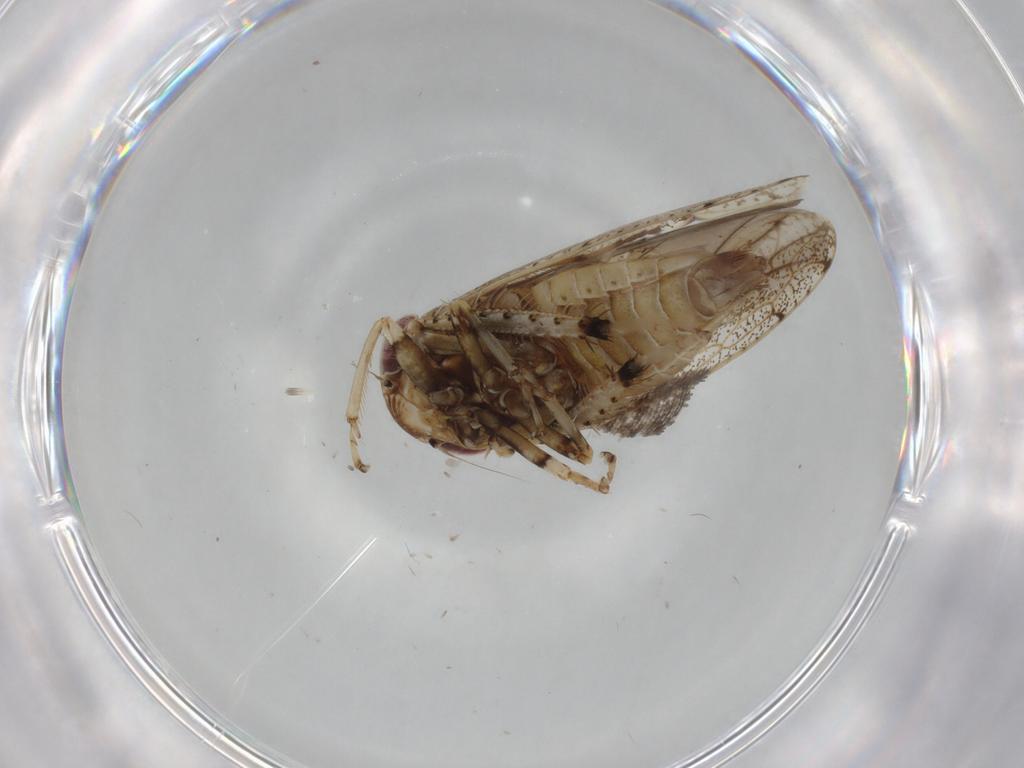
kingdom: Animalia
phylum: Arthropoda
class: Insecta
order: Hemiptera
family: Cicadellidae
